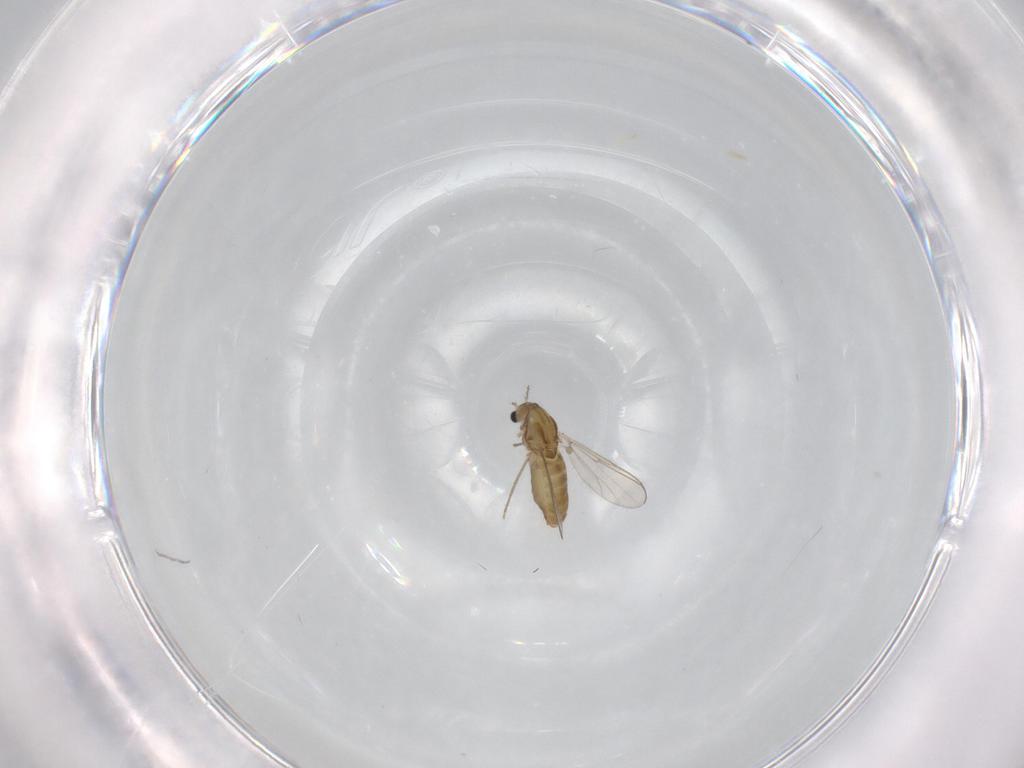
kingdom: Animalia
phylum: Arthropoda
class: Insecta
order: Diptera
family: Chironomidae
